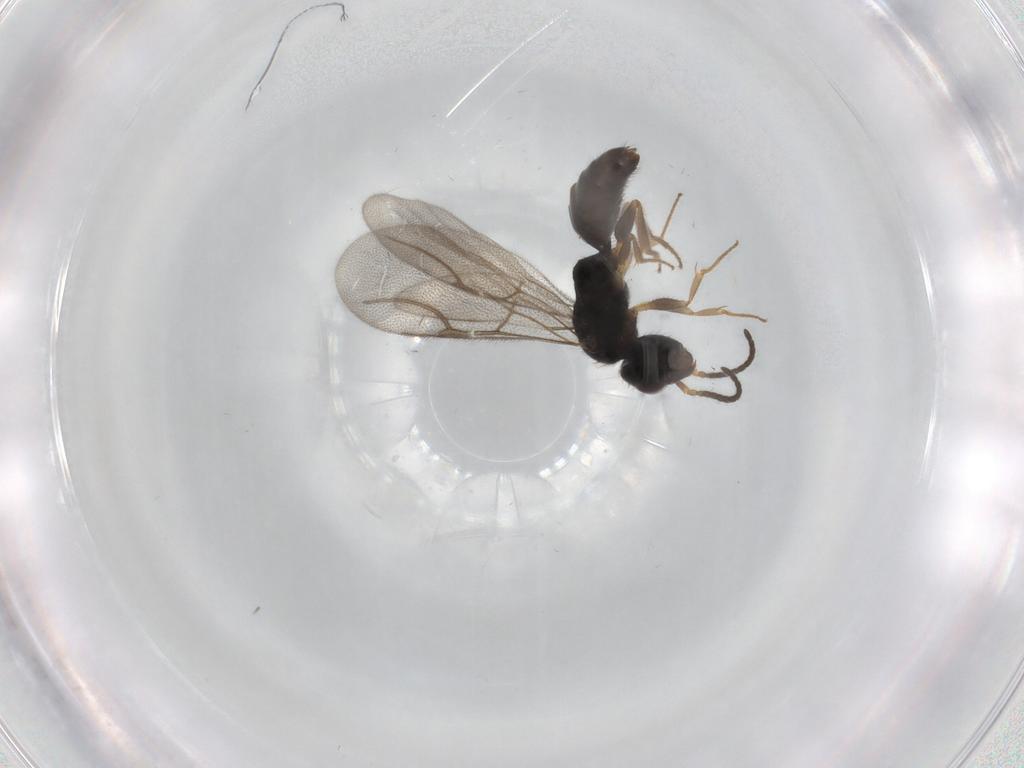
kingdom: Animalia
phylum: Arthropoda
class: Insecta
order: Hymenoptera
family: Bethylidae
